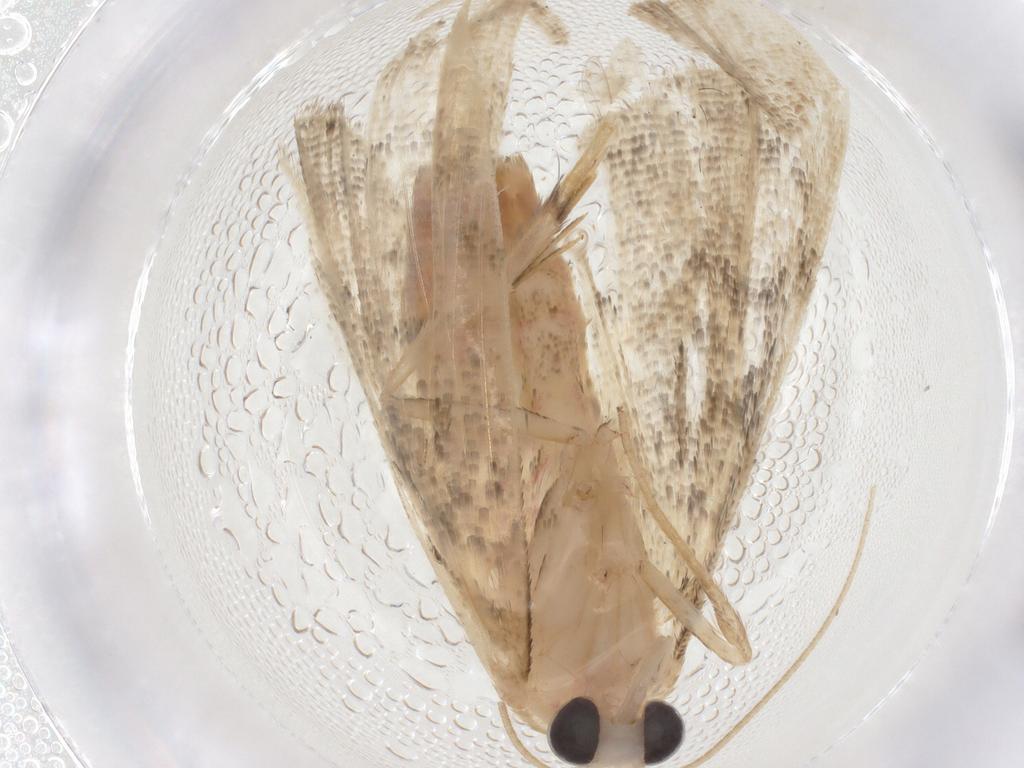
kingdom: Animalia
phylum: Arthropoda
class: Insecta
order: Lepidoptera
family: Erebidae
